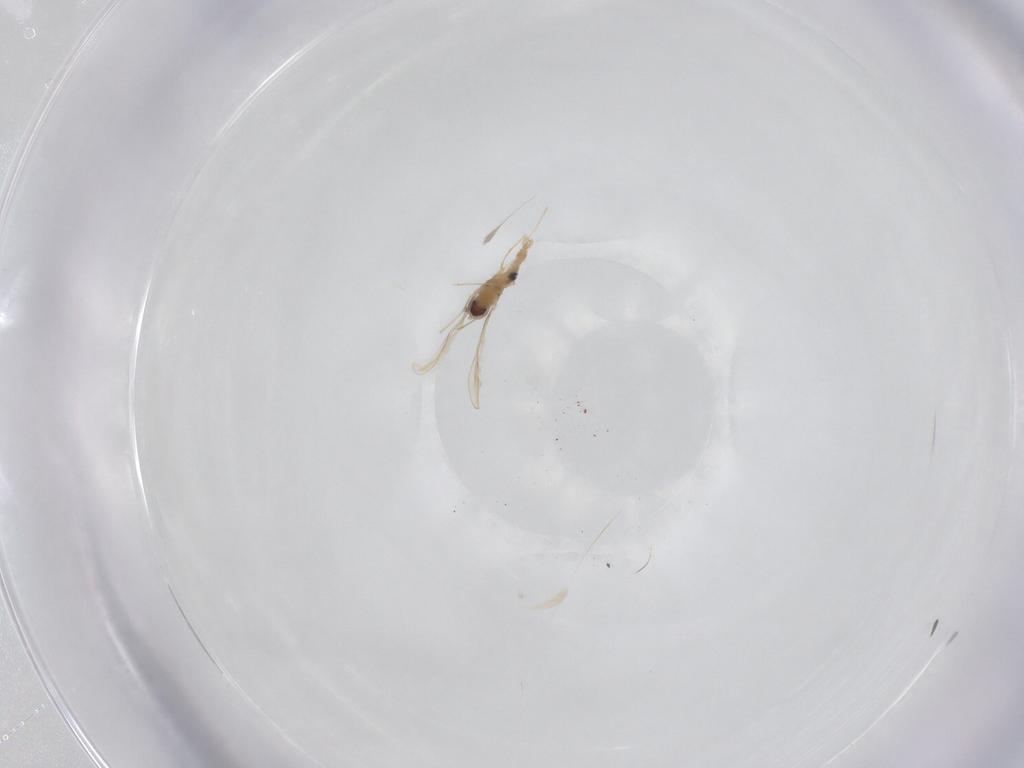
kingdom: Animalia
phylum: Arthropoda
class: Insecta
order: Diptera
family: Cecidomyiidae
